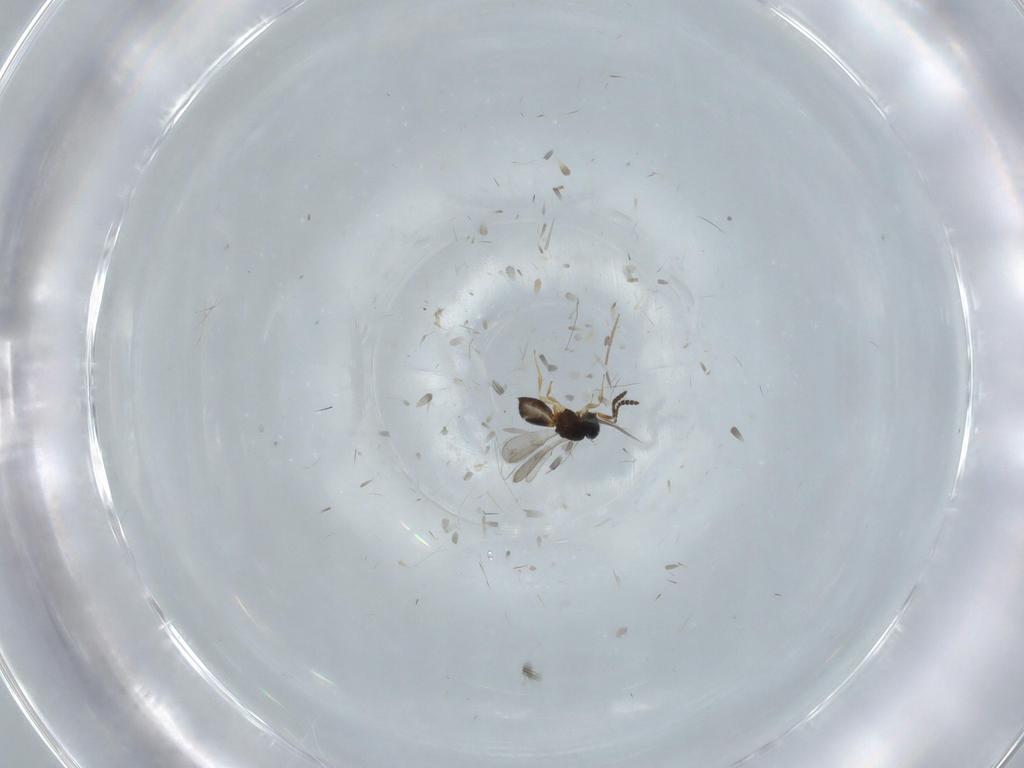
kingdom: Animalia
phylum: Arthropoda
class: Insecta
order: Hymenoptera
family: Scelionidae
